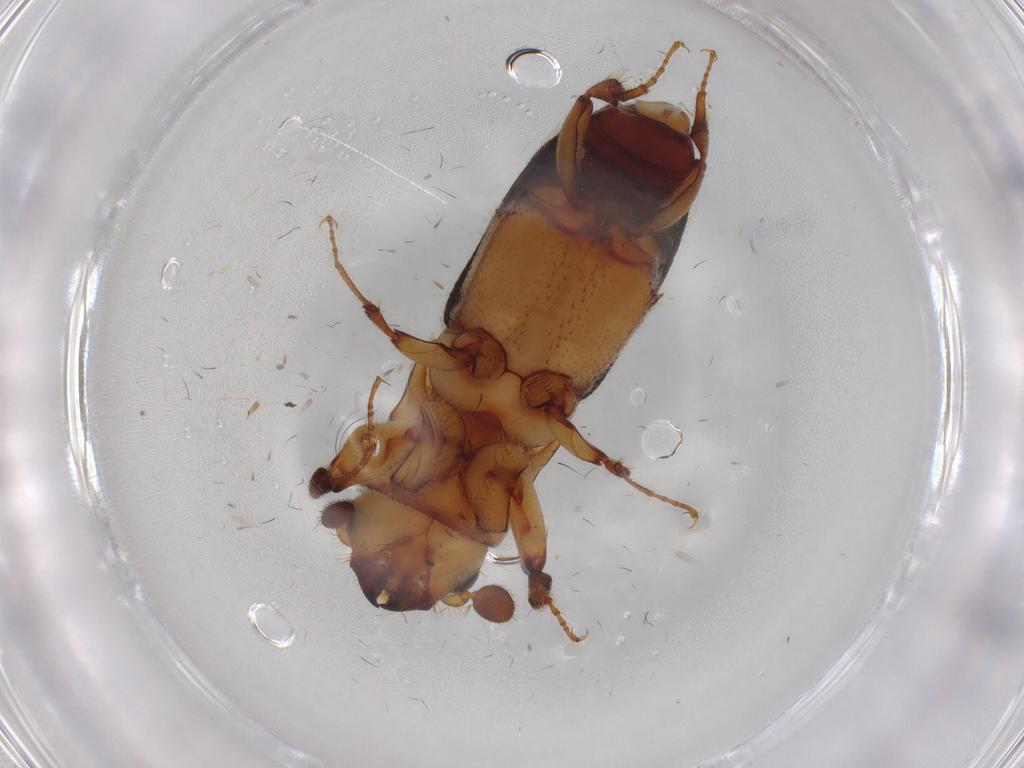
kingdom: Animalia
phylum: Arthropoda
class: Insecta
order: Coleoptera
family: Curculionidae
